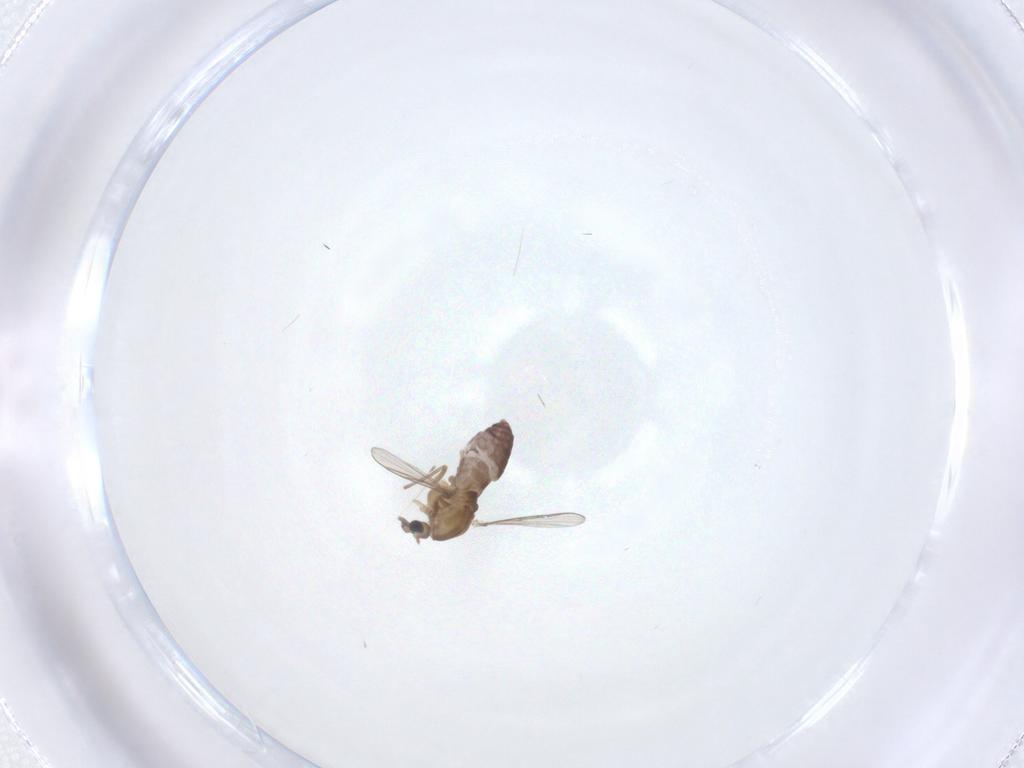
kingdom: Animalia
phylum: Arthropoda
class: Insecta
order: Diptera
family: Chironomidae
